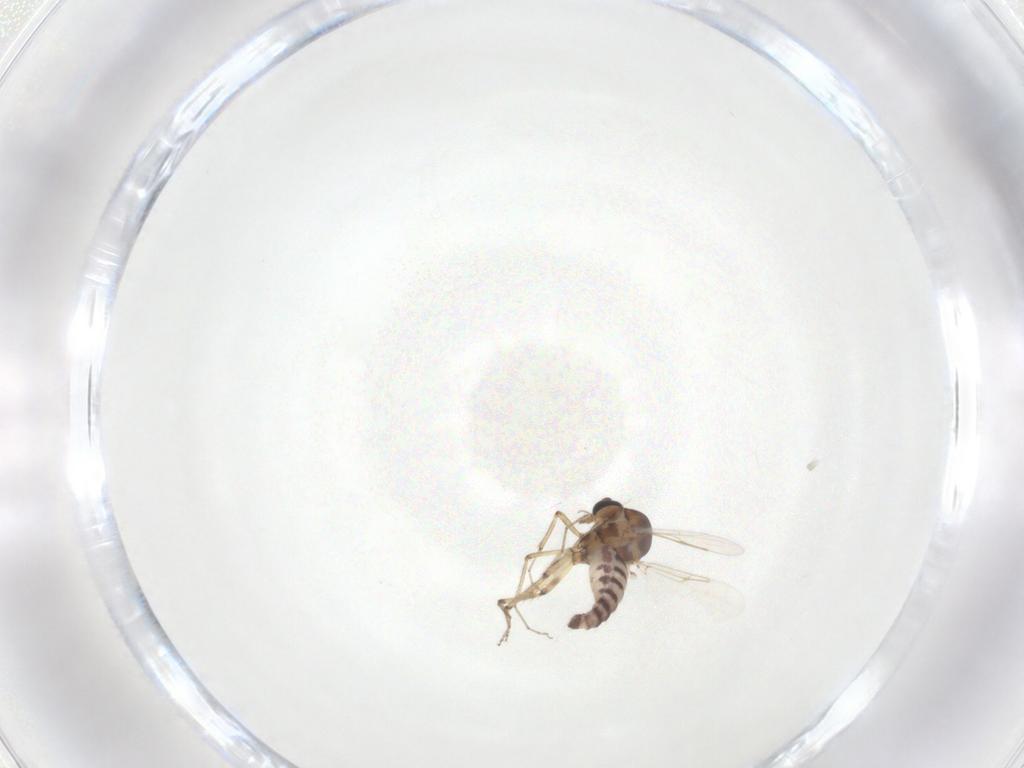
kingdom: Animalia
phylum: Arthropoda
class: Insecta
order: Diptera
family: Ceratopogonidae
